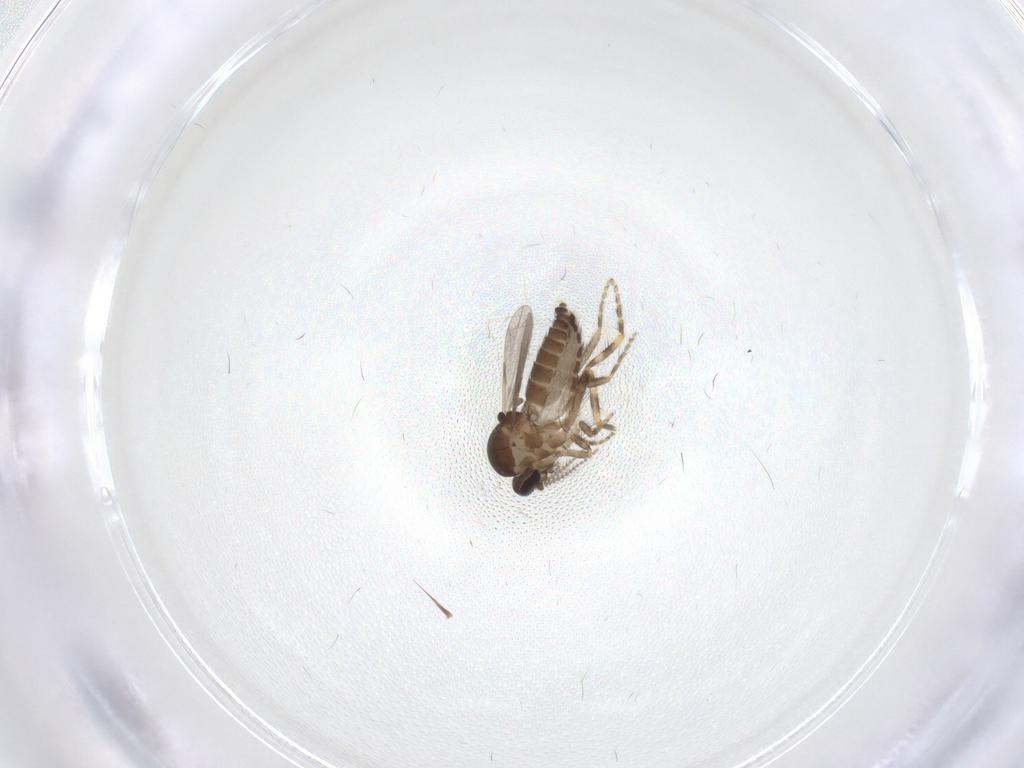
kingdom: Animalia
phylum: Arthropoda
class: Insecta
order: Diptera
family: Ceratopogonidae
